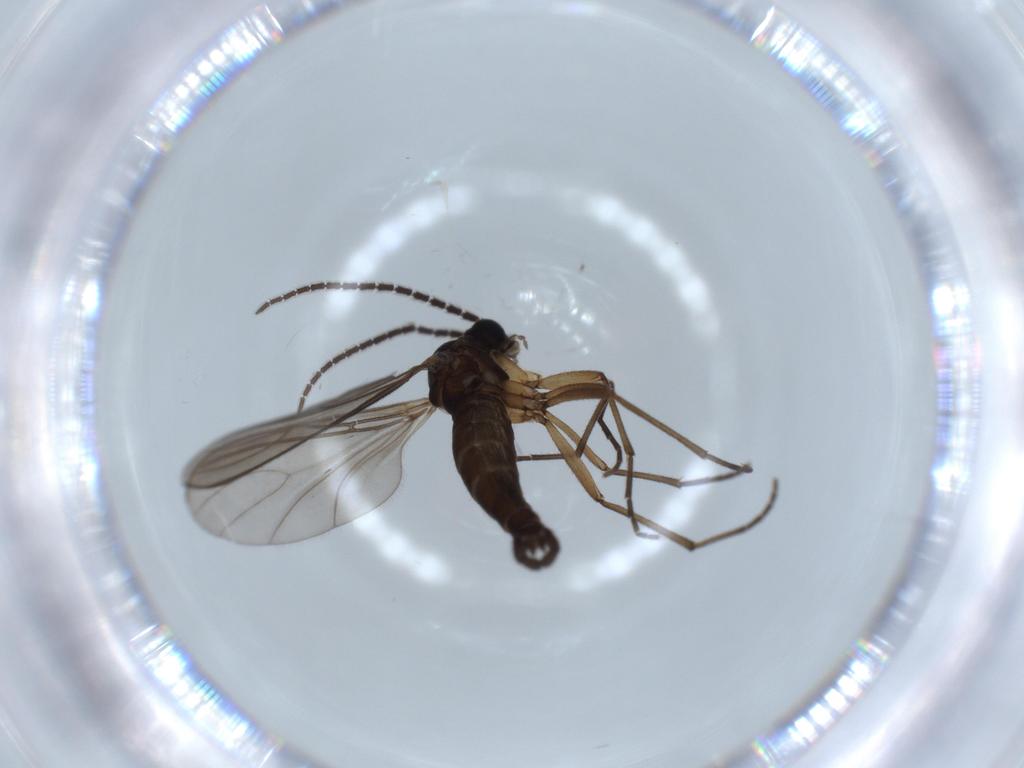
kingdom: Animalia
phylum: Arthropoda
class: Insecta
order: Diptera
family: Sciaridae
